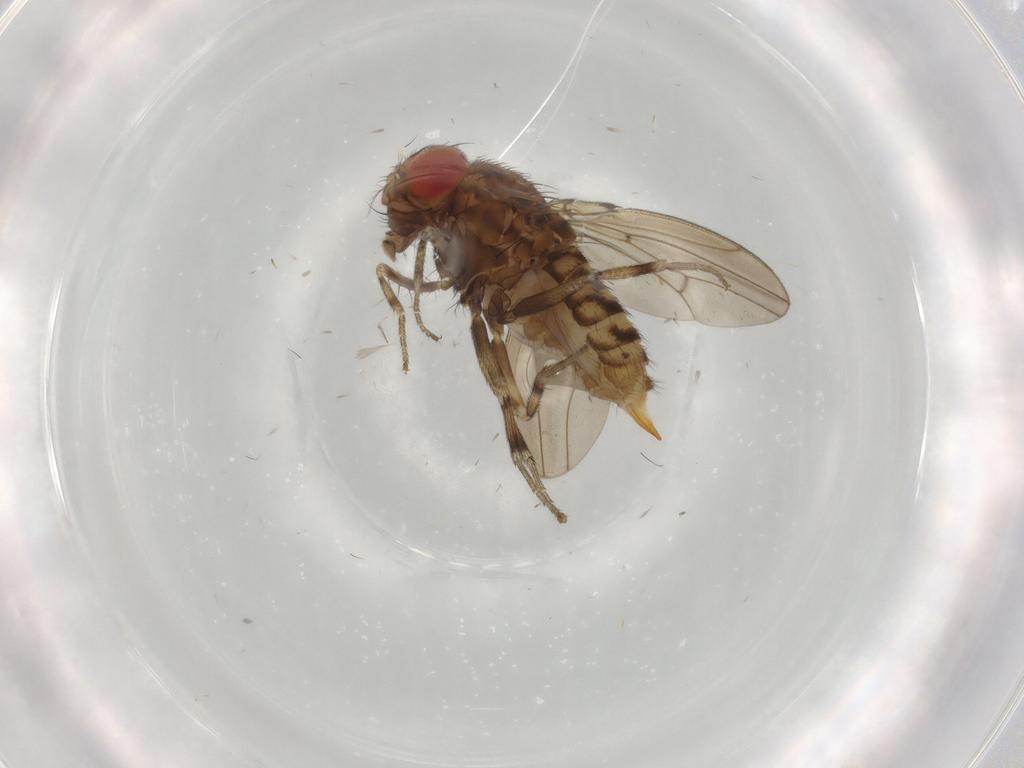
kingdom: Animalia
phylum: Arthropoda
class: Insecta
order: Diptera
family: Drosophilidae
